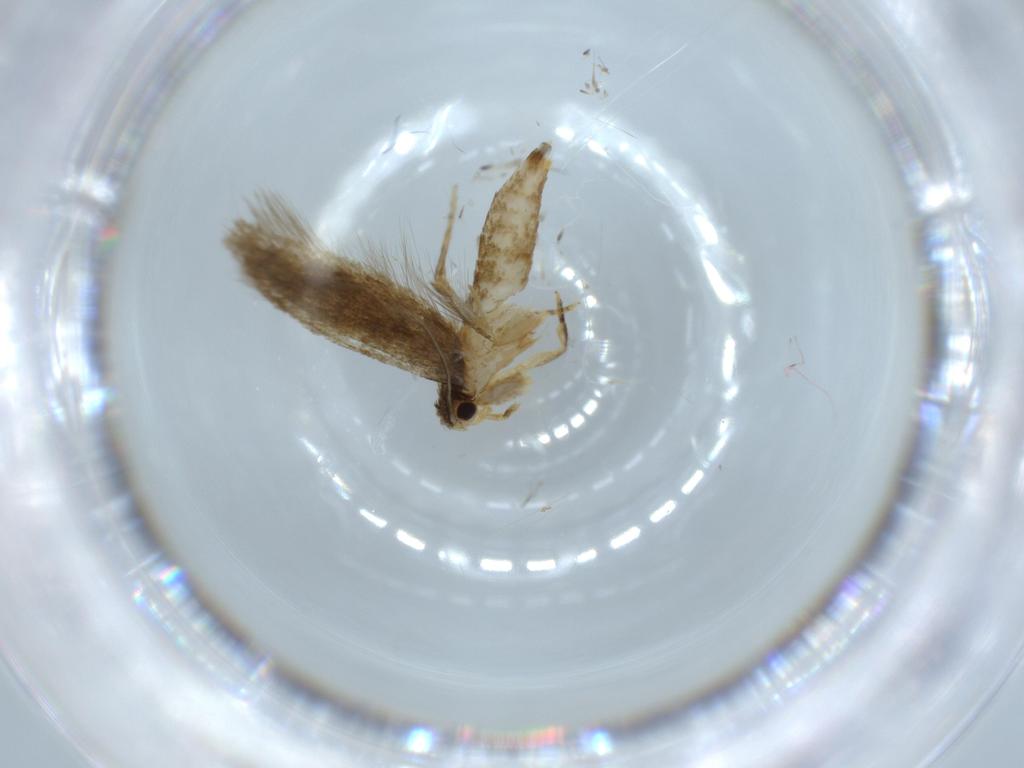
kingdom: Animalia
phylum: Arthropoda
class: Insecta
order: Lepidoptera
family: Tineidae
